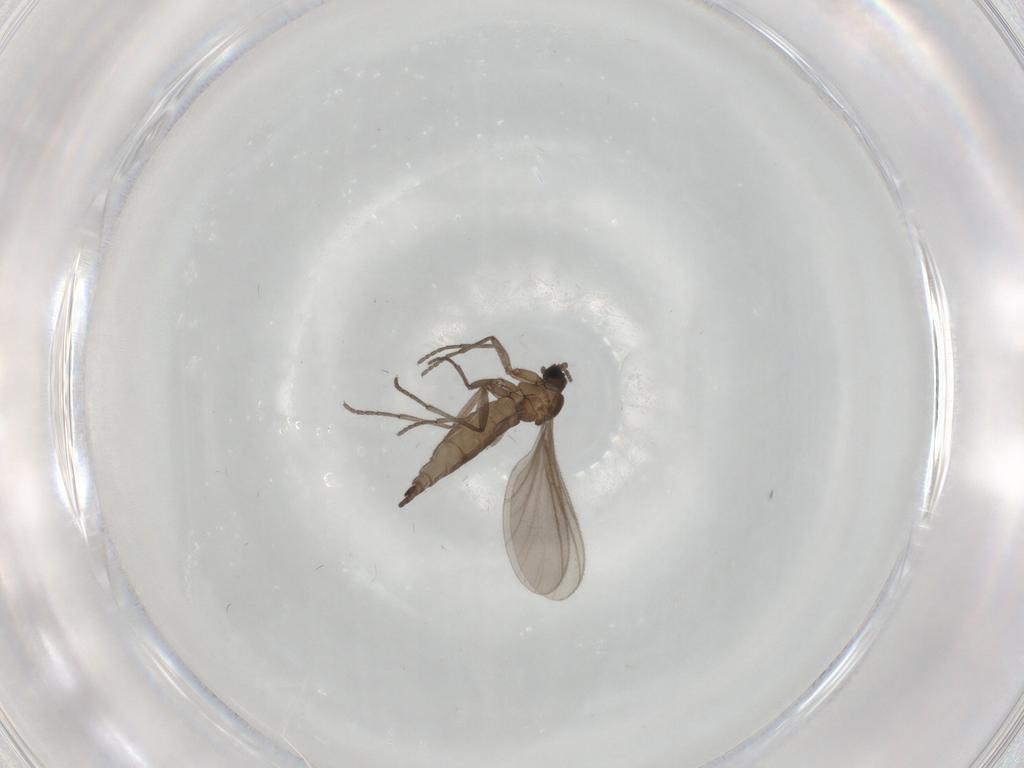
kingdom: Animalia
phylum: Arthropoda
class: Insecta
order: Diptera
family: Sciaridae
